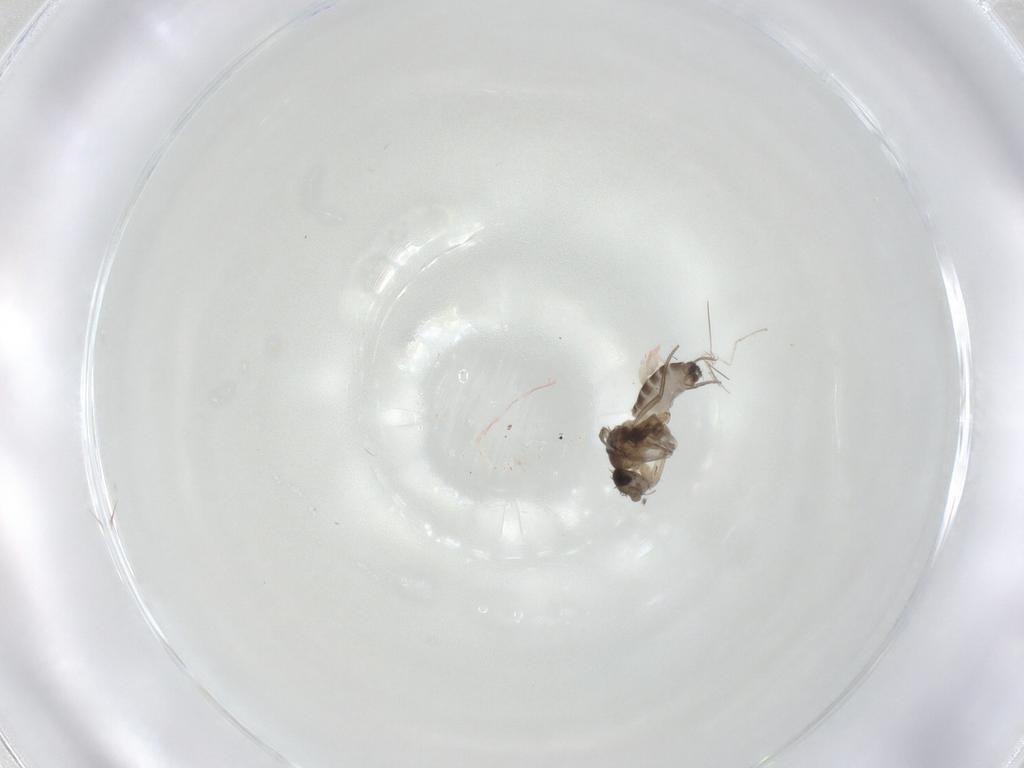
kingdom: Animalia
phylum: Arthropoda
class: Insecta
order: Diptera
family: Phoridae
